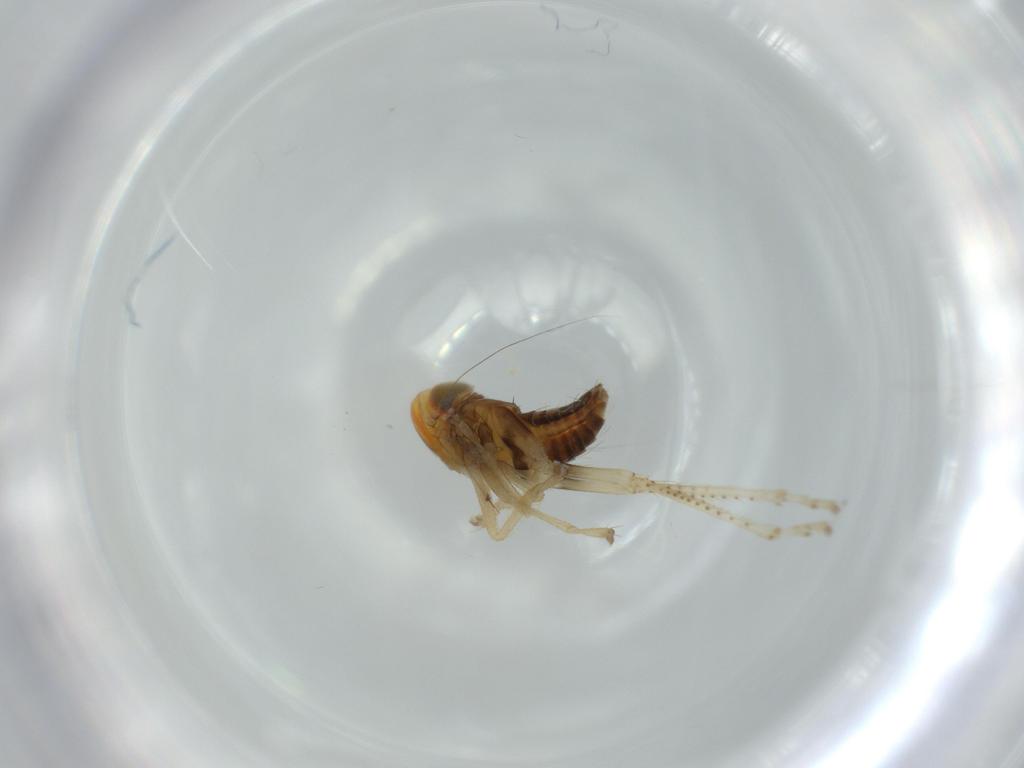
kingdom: Animalia
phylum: Arthropoda
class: Insecta
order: Hemiptera
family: Cicadellidae
